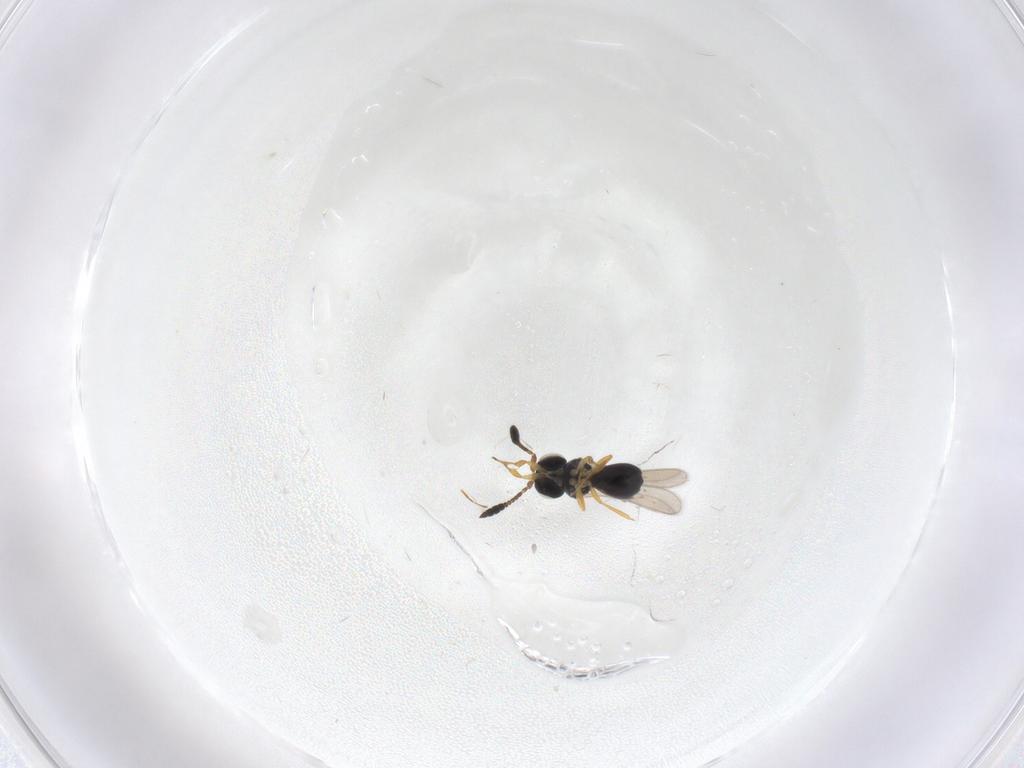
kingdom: Animalia
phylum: Arthropoda
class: Insecta
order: Hymenoptera
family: Scelionidae
